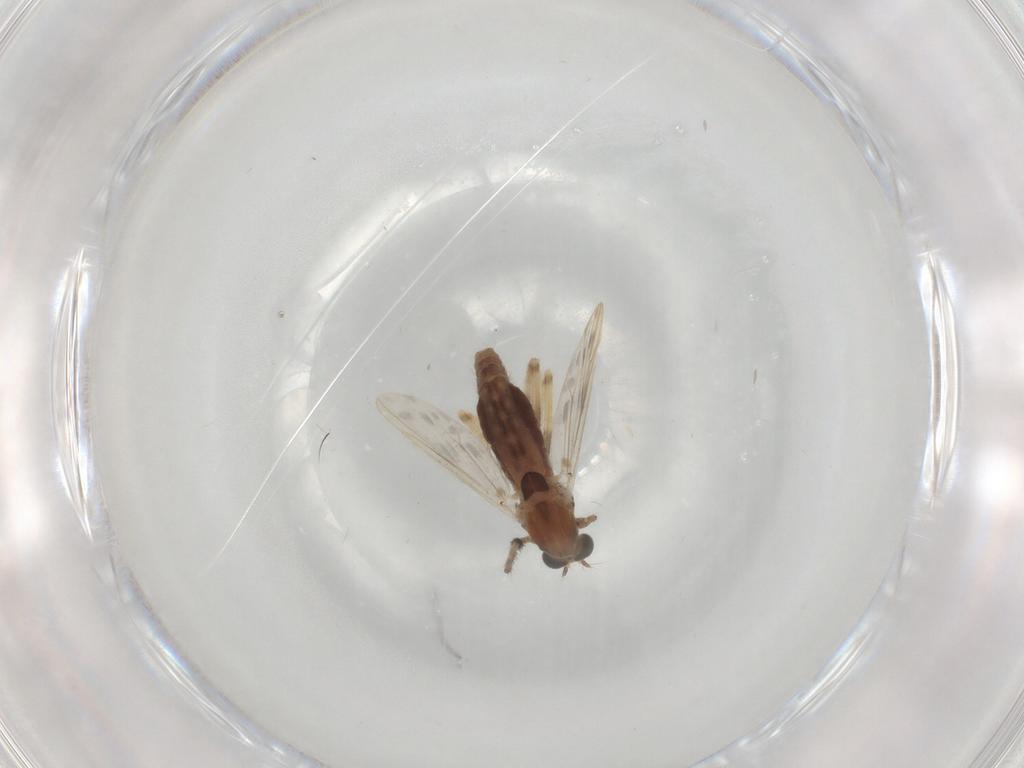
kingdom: Animalia
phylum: Arthropoda
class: Insecta
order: Diptera
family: Chironomidae
